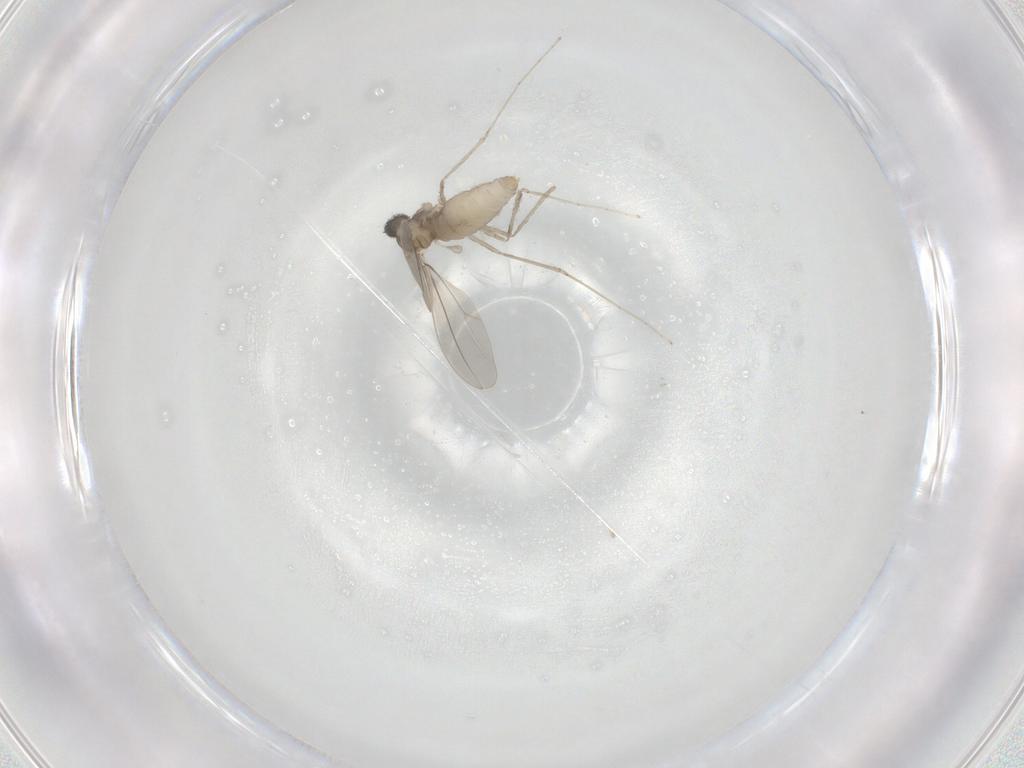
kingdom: Animalia
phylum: Arthropoda
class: Insecta
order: Diptera
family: Cecidomyiidae
